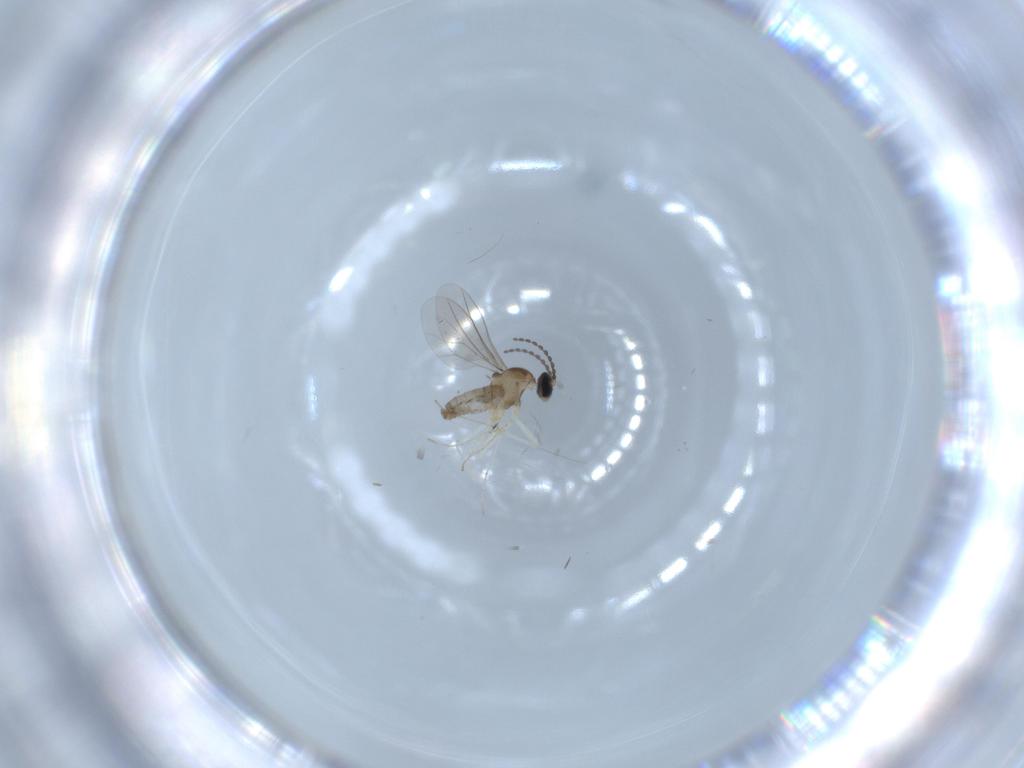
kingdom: Animalia
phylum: Arthropoda
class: Insecta
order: Diptera
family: Cecidomyiidae
